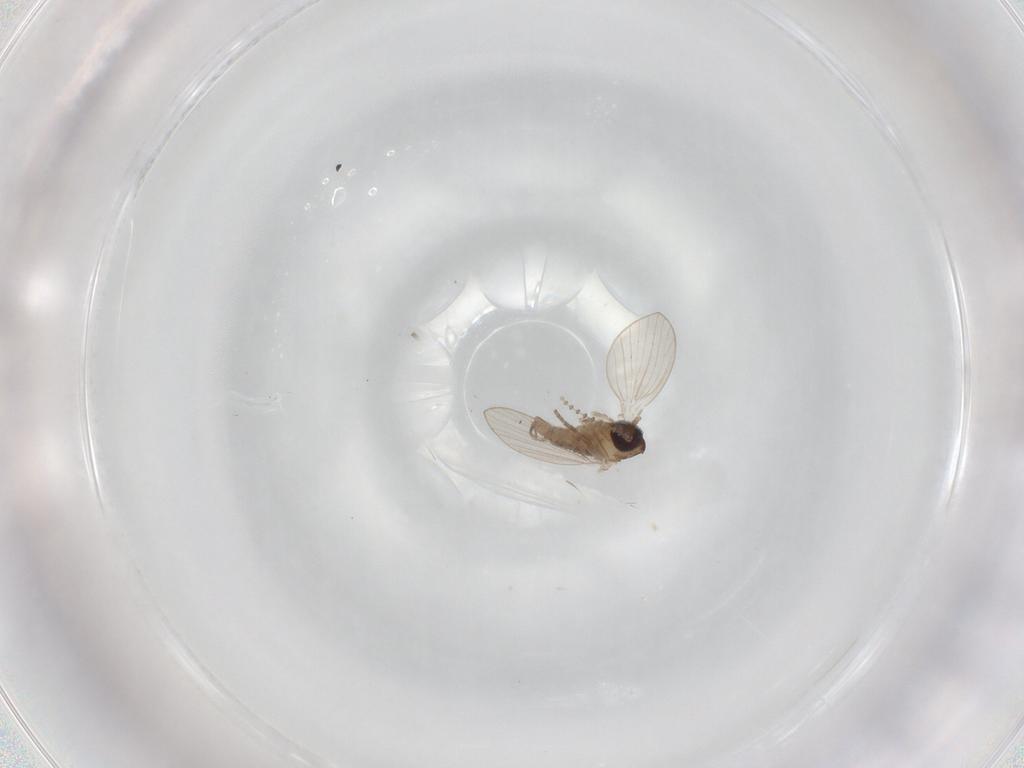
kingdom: Animalia
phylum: Arthropoda
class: Insecta
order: Diptera
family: Psychodidae
